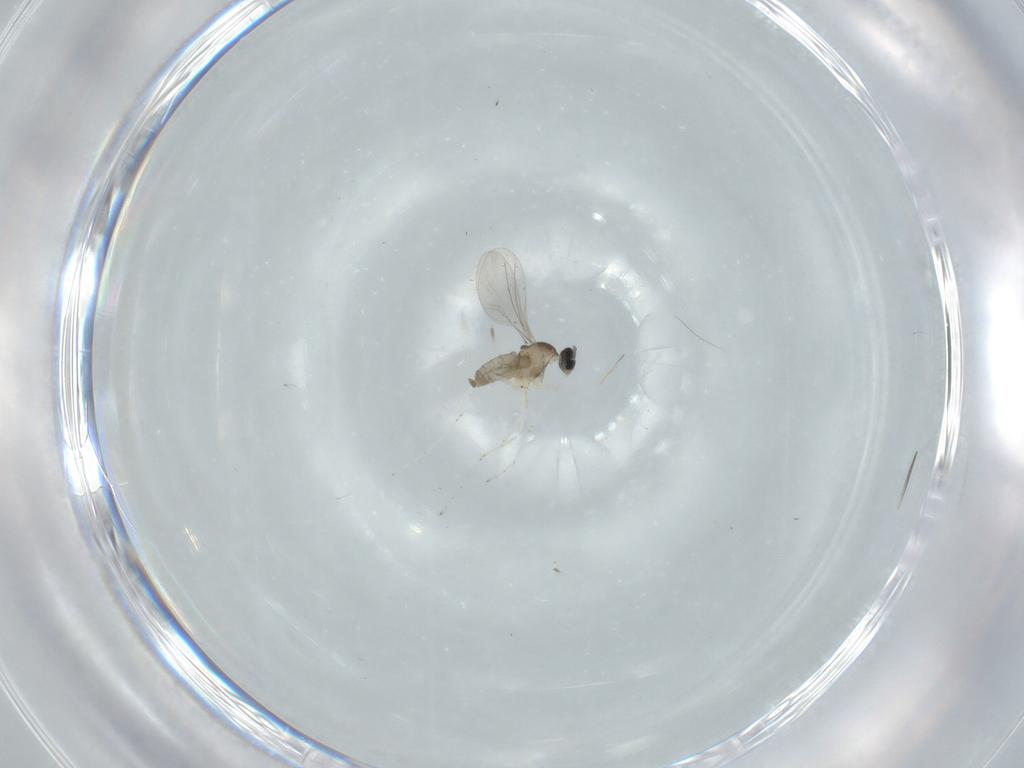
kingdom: Animalia
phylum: Arthropoda
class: Insecta
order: Diptera
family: Cecidomyiidae
